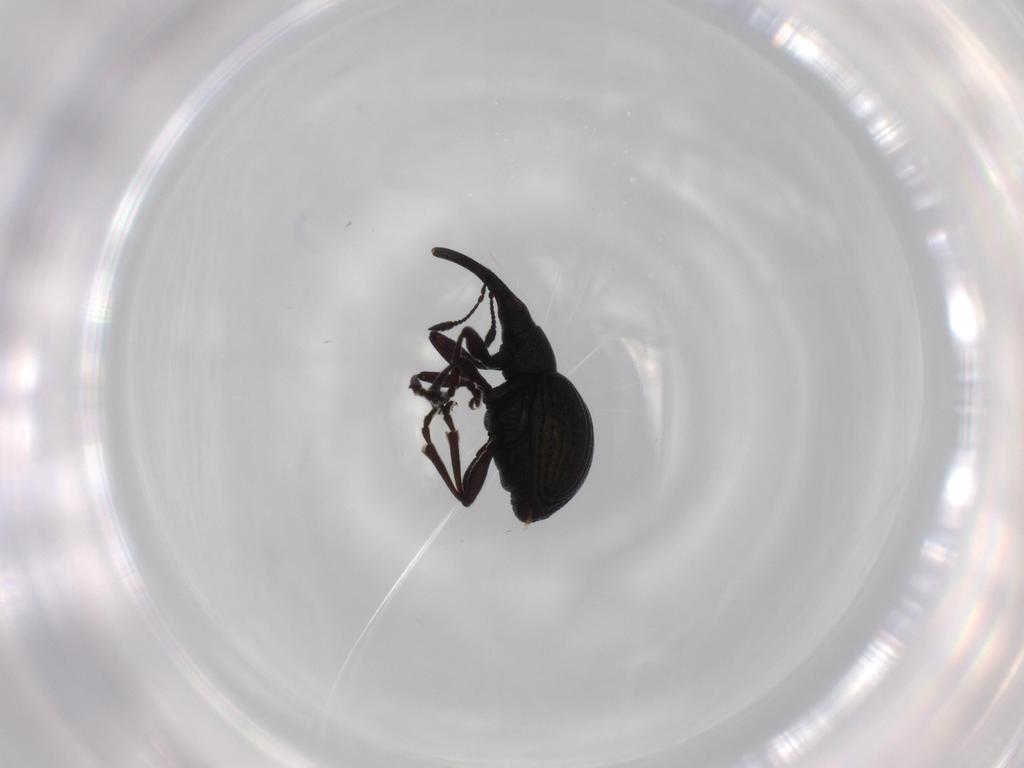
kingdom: Animalia
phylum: Arthropoda
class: Insecta
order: Coleoptera
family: Brentidae
